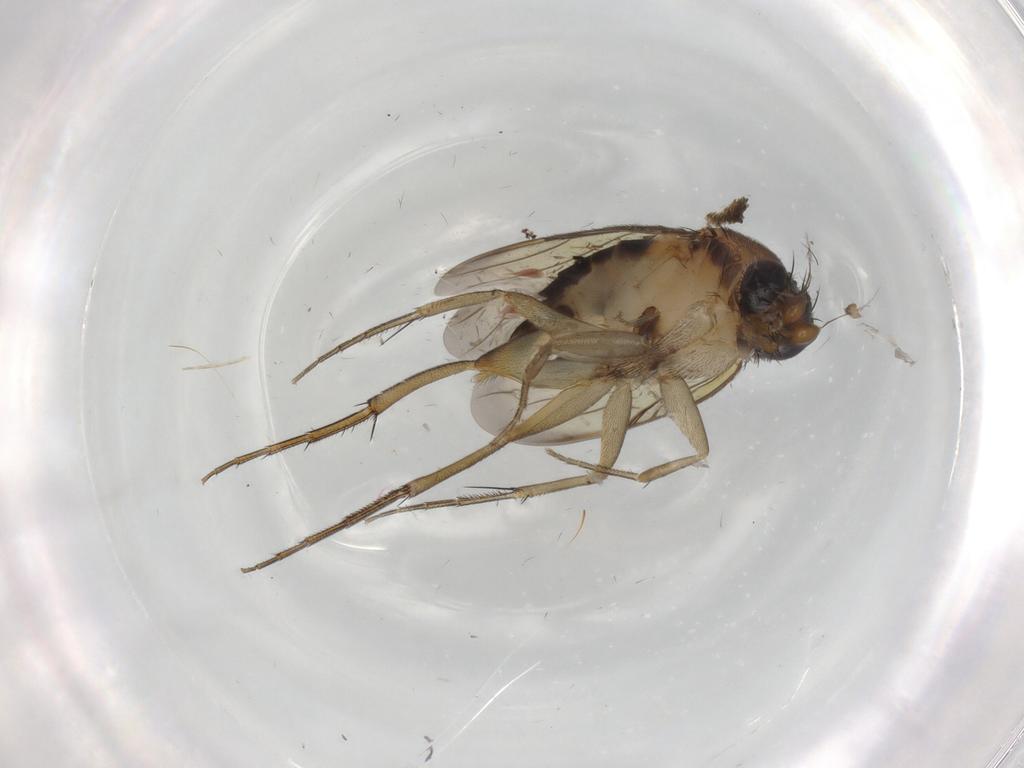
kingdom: Animalia
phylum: Arthropoda
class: Insecta
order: Diptera
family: Phoridae
